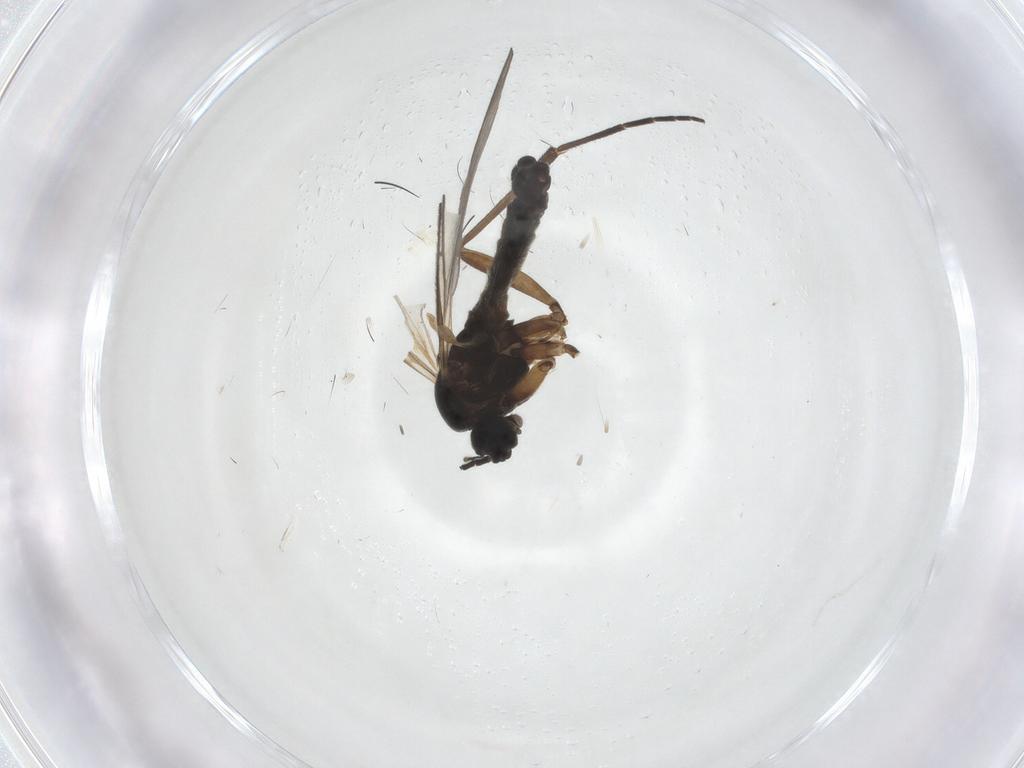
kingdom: Animalia
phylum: Arthropoda
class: Insecta
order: Diptera
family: Sciaridae
